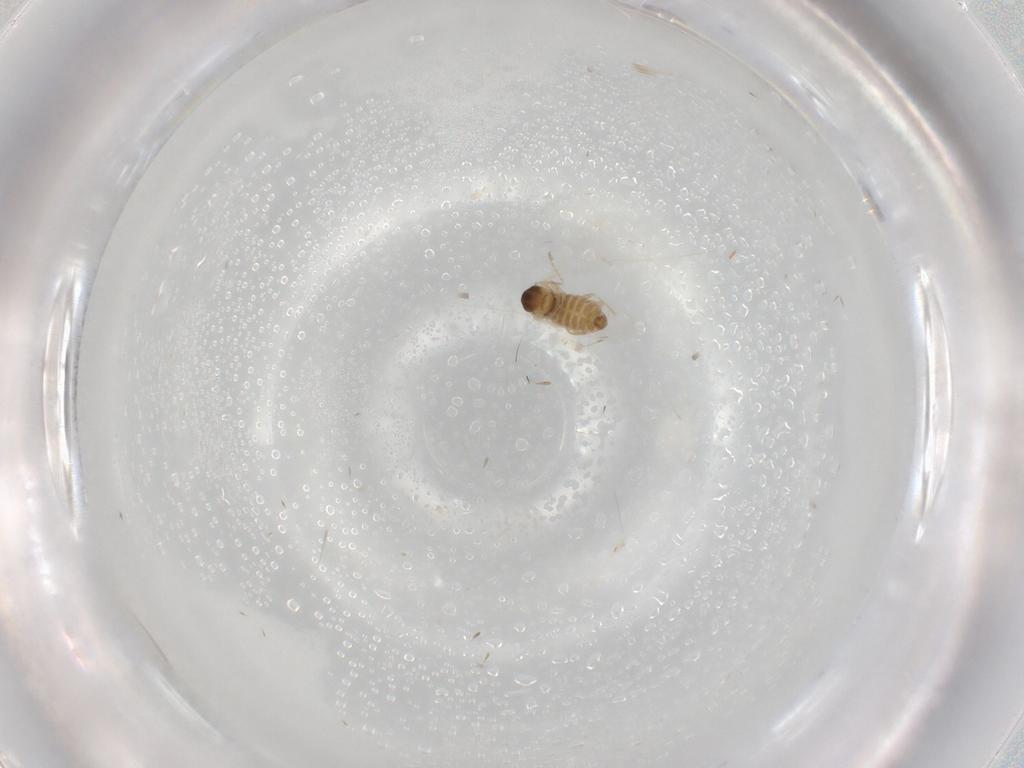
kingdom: Animalia
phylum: Arthropoda
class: Insecta
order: Diptera
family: Cecidomyiidae
